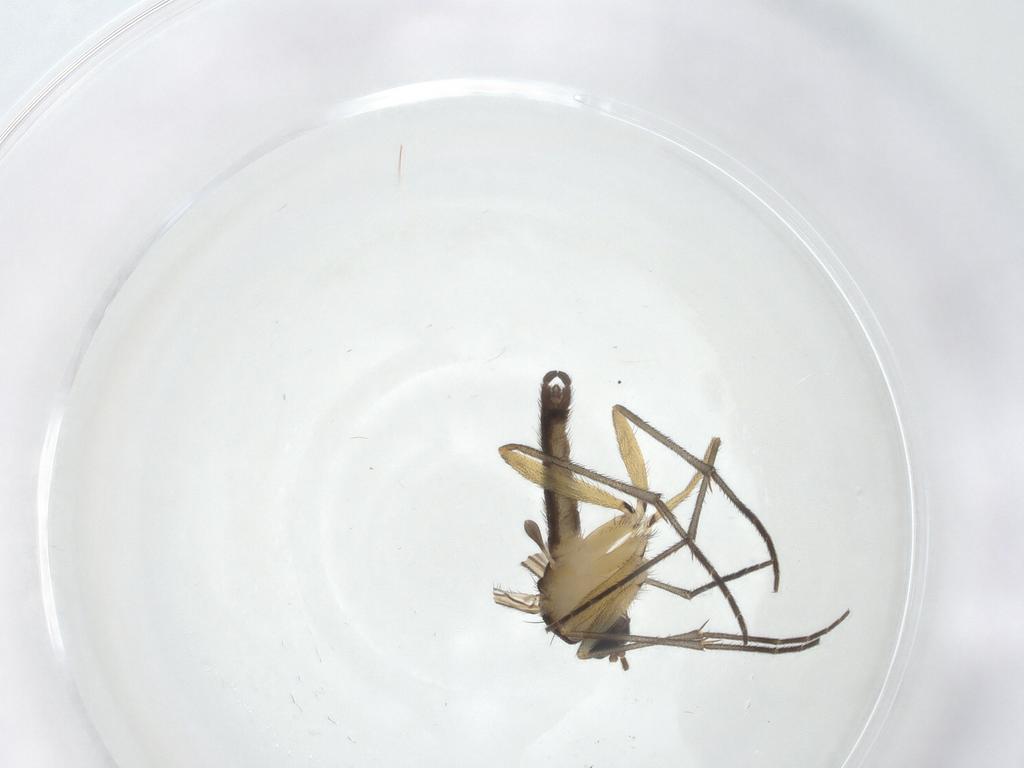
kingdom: Animalia
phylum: Arthropoda
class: Insecta
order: Diptera
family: Sciaridae
